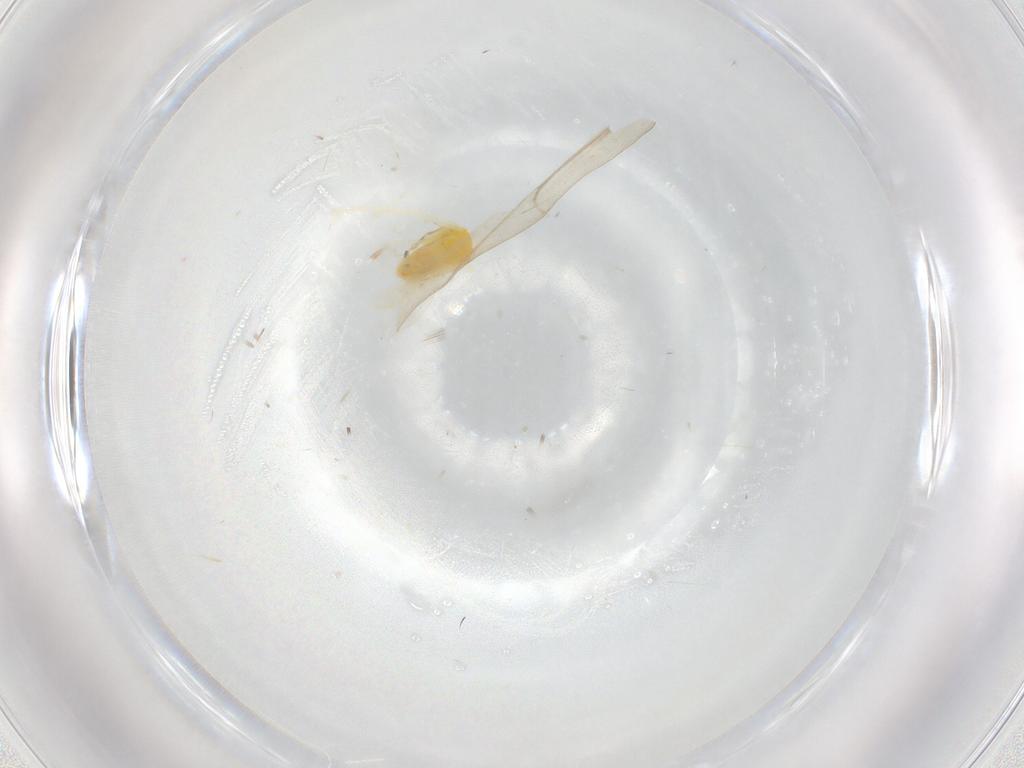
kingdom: Animalia
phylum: Arthropoda
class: Insecta
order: Hemiptera
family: Aleyrodidae
